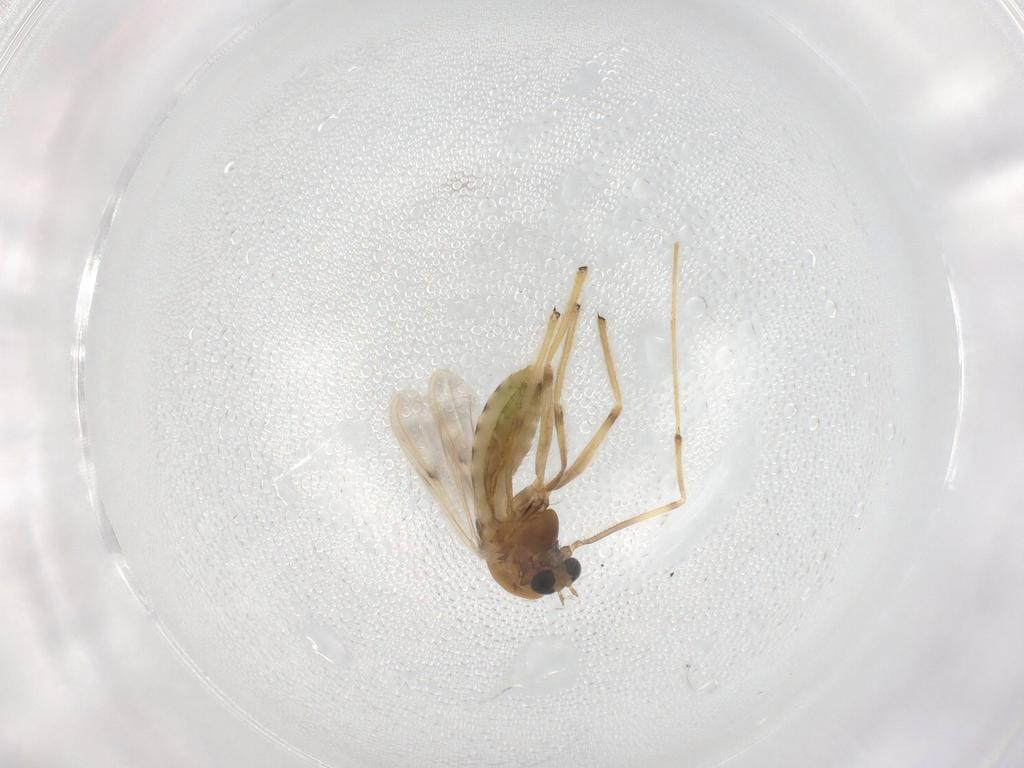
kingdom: Animalia
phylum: Arthropoda
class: Insecta
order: Diptera
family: Chironomidae
